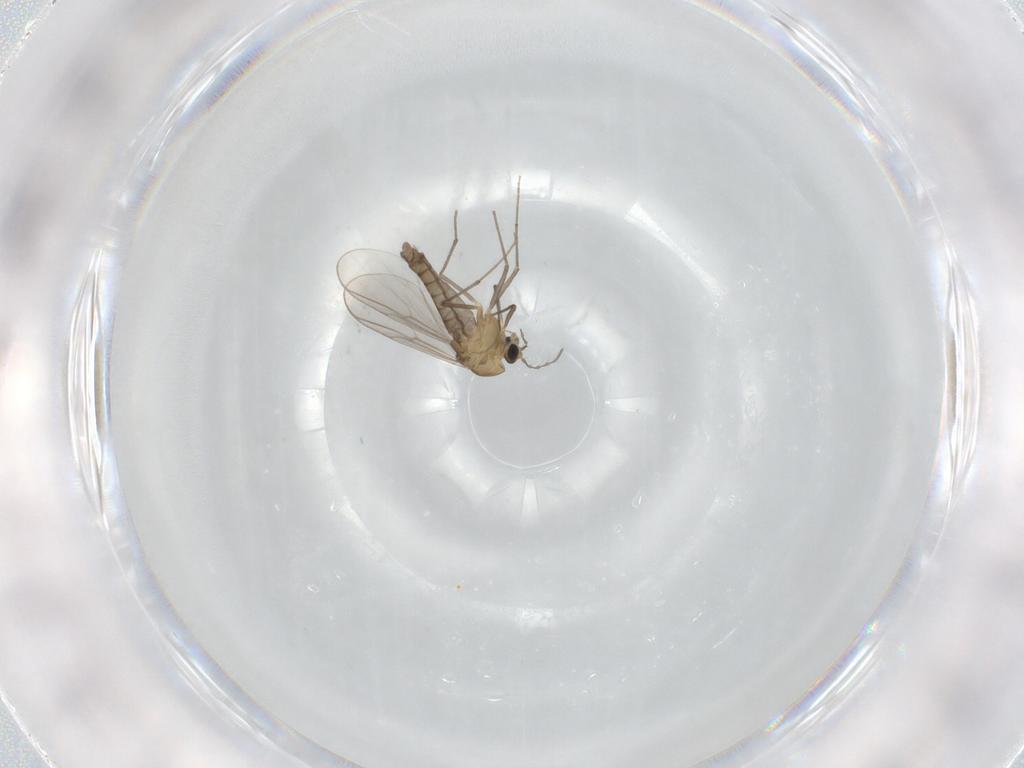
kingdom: Animalia
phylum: Arthropoda
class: Insecta
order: Diptera
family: Chironomidae
